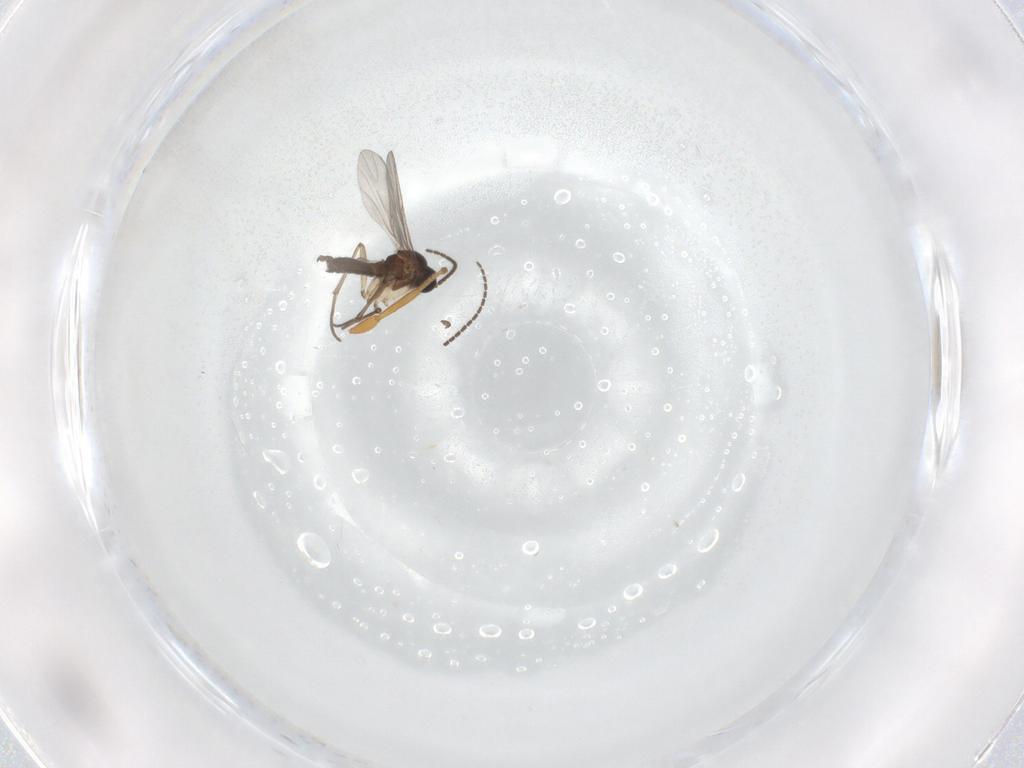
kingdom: Animalia
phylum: Arthropoda
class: Insecta
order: Diptera
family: Sciaridae
